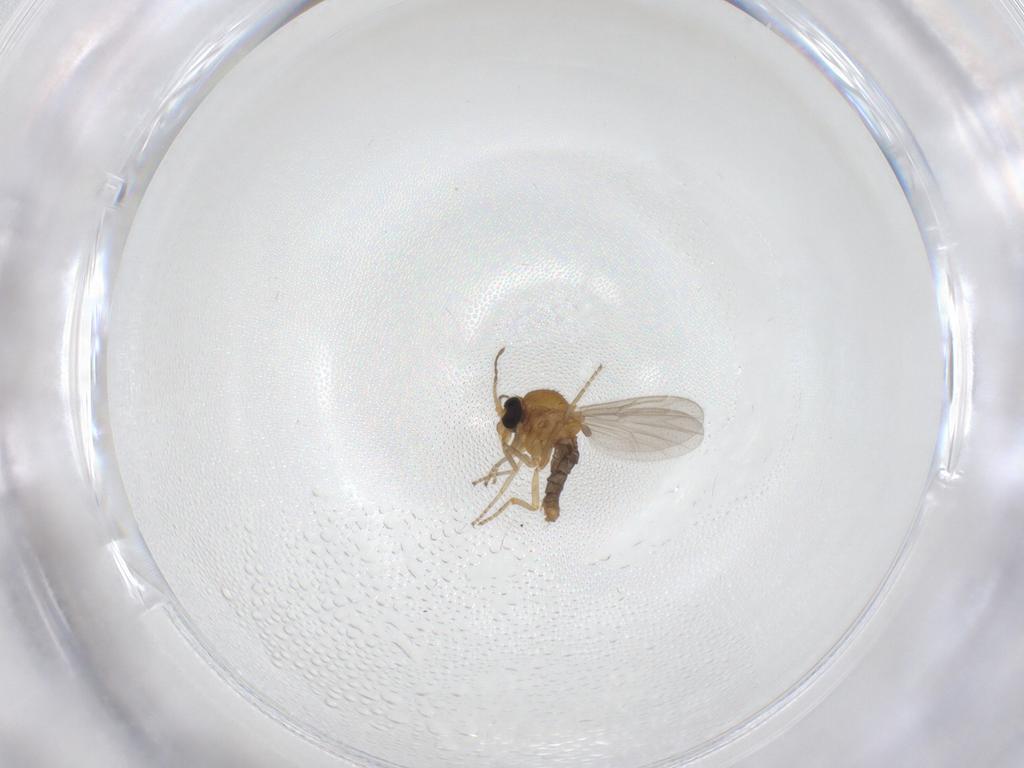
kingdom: Animalia
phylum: Arthropoda
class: Insecta
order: Diptera
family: Ceratopogonidae
